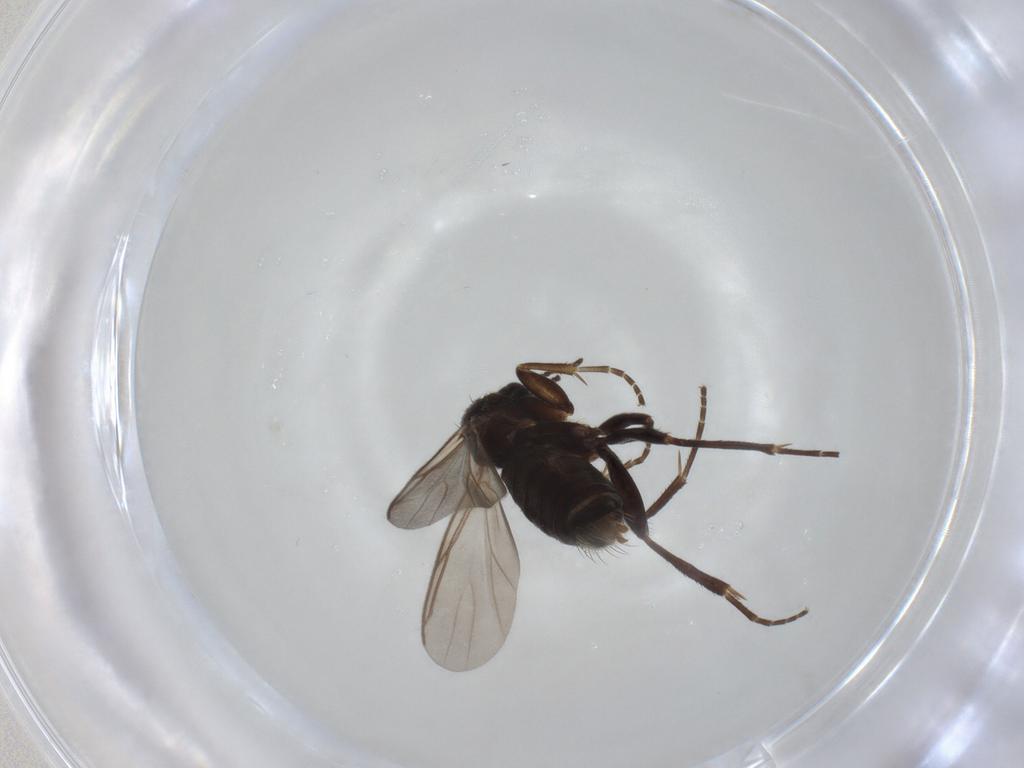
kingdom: Animalia
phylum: Arthropoda
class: Insecta
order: Diptera
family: Mycetophilidae
